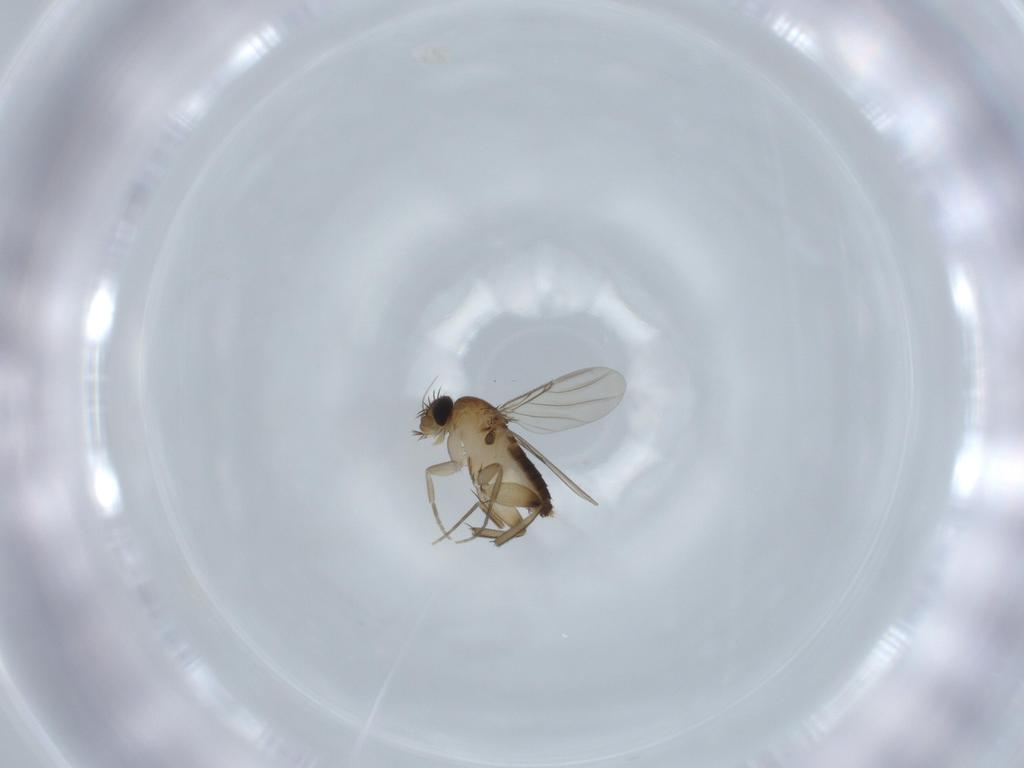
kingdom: Animalia
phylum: Arthropoda
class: Insecta
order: Diptera
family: Phoridae
